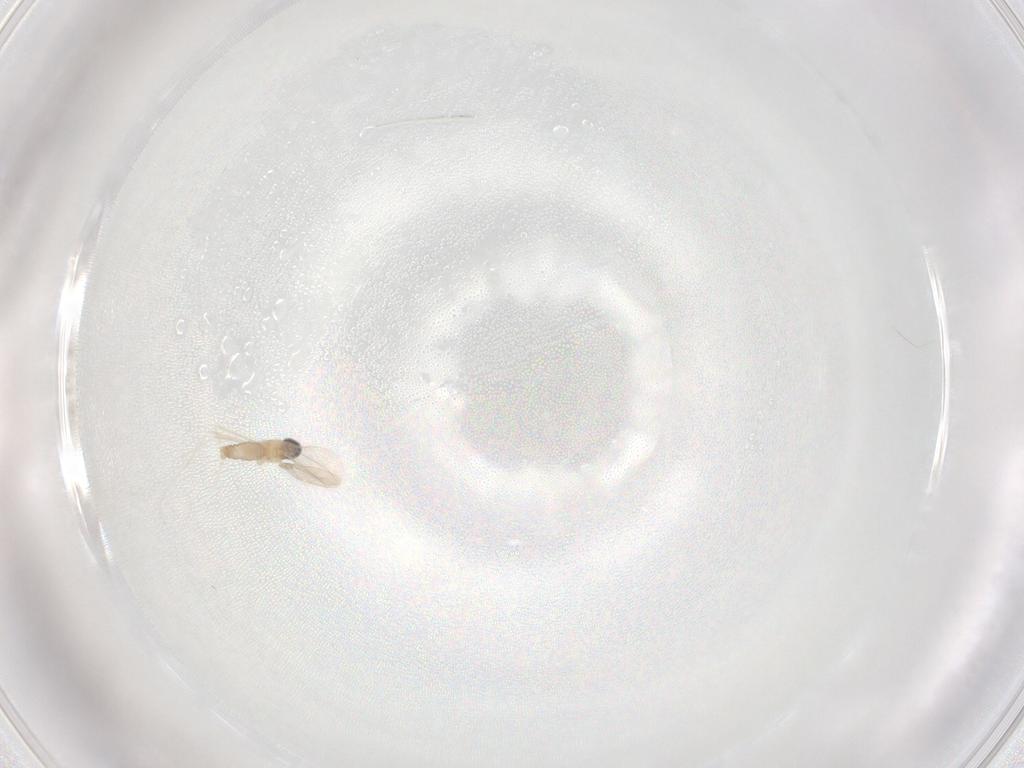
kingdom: Animalia
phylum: Arthropoda
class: Insecta
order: Diptera
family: Cecidomyiidae
